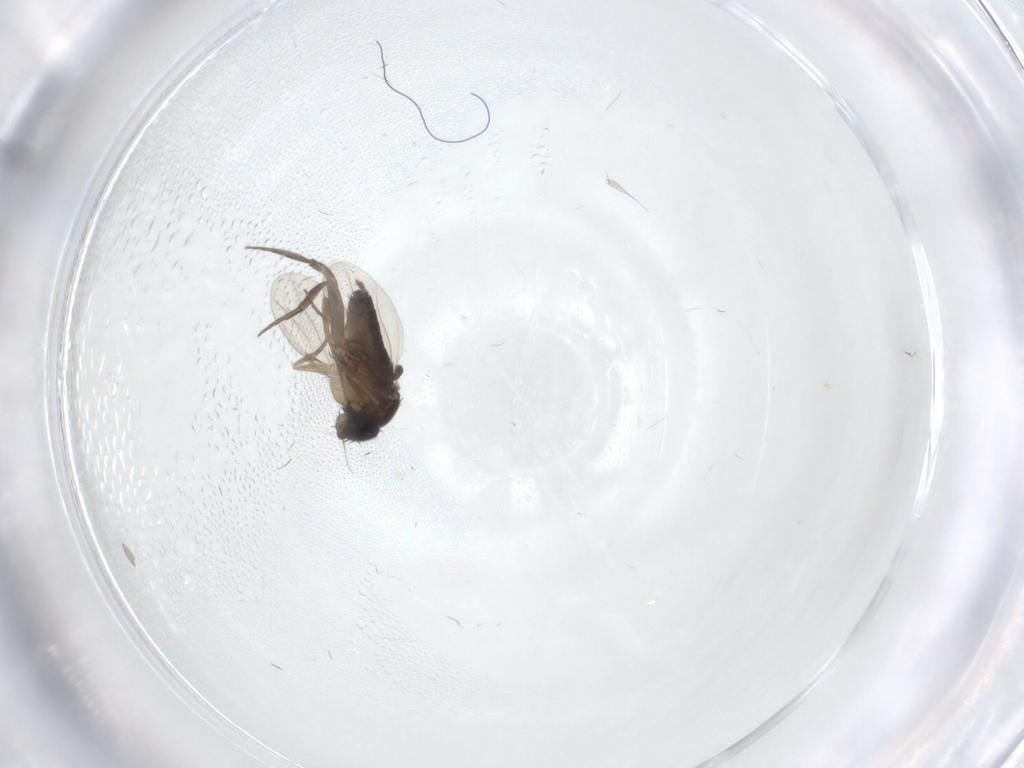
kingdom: Animalia
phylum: Arthropoda
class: Insecta
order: Diptera
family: Phoridae
